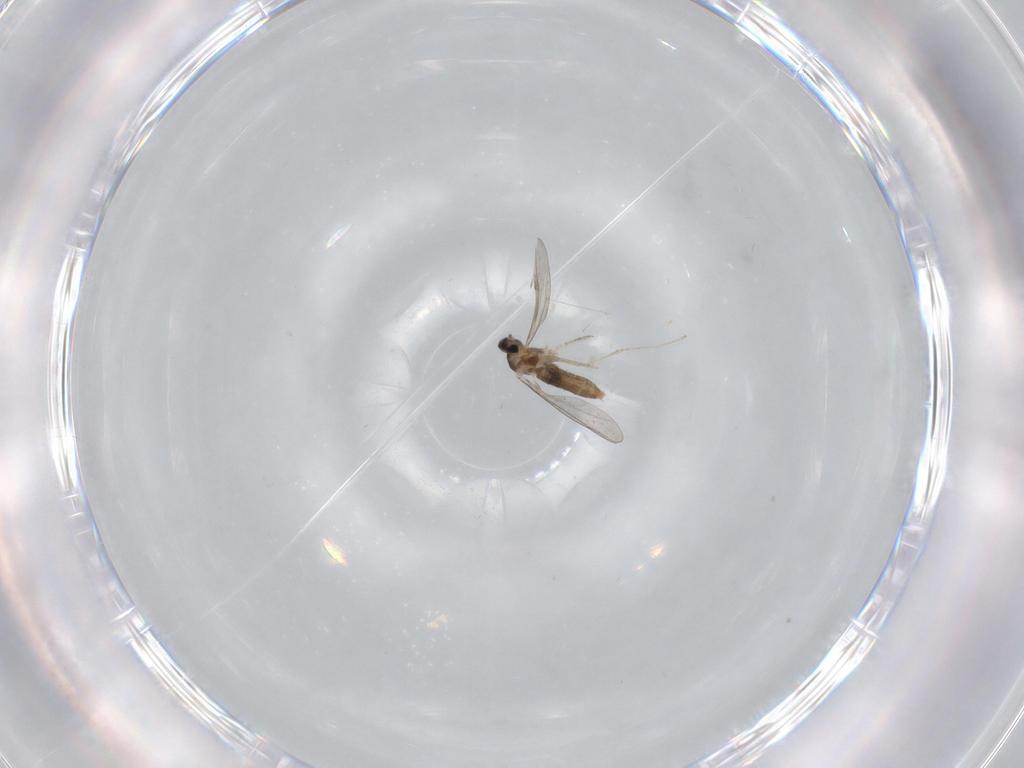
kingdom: Animalia
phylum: Arthropoda
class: Insecta
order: Diptera
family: Cecidomyiidae
